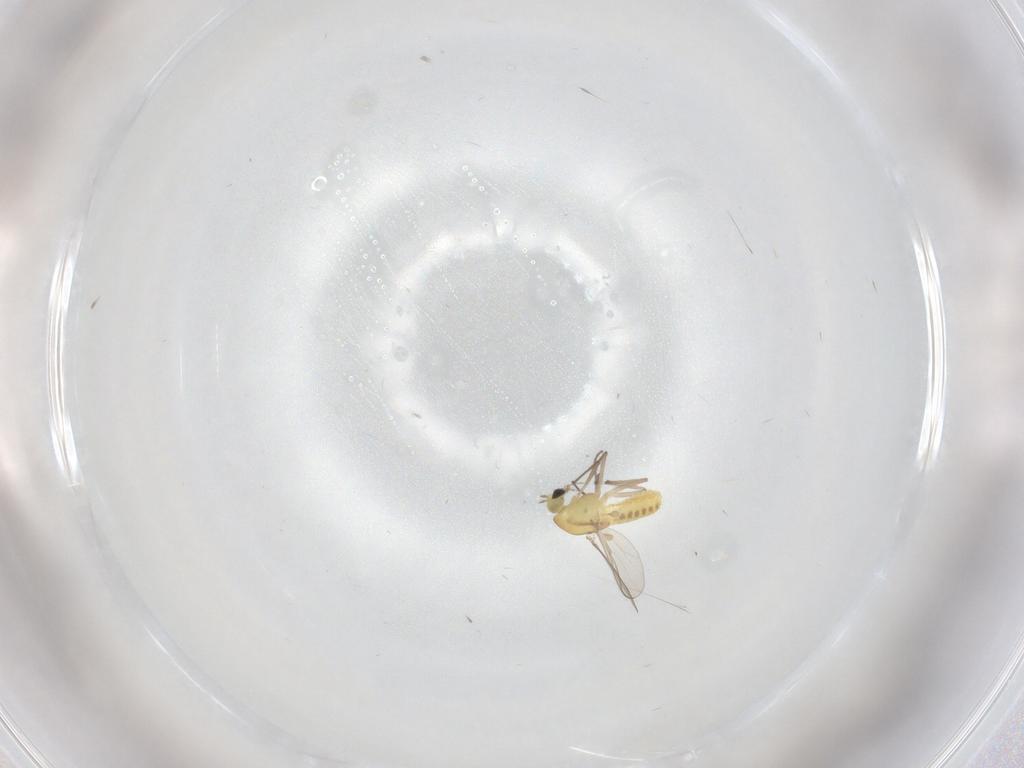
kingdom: Animalia
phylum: Arthropoda
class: Insecta
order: Diptera
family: Chironomidae
